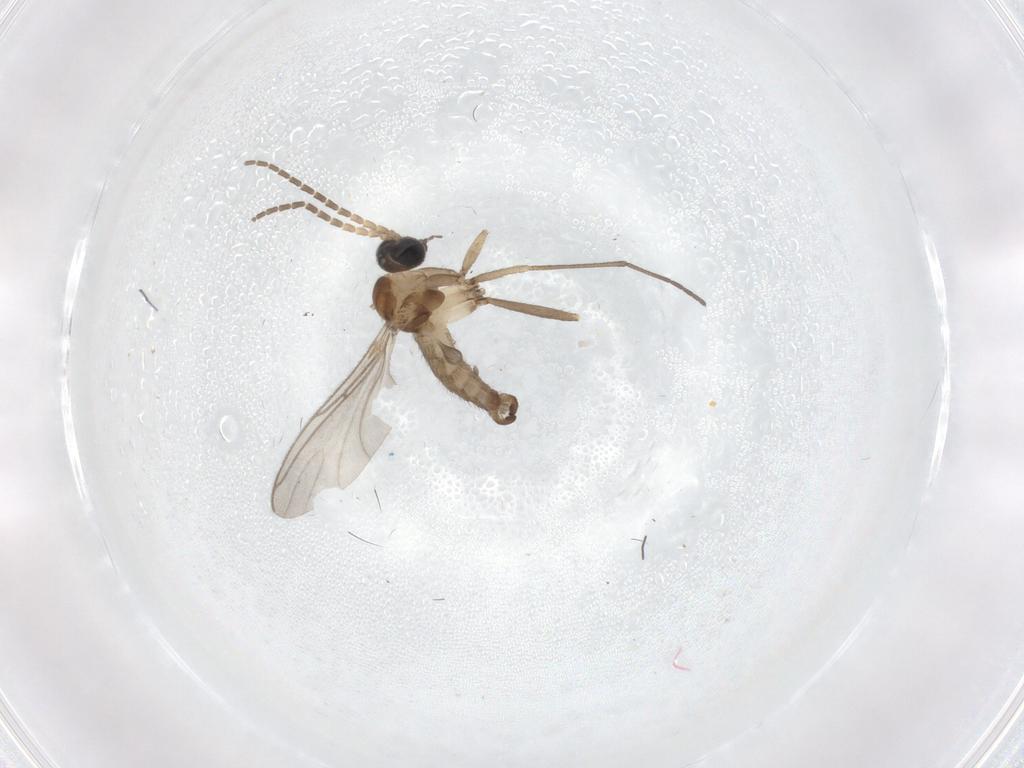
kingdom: Animalia
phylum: Arthropoda
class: Insecta
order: Diptera
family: Sciaridae
